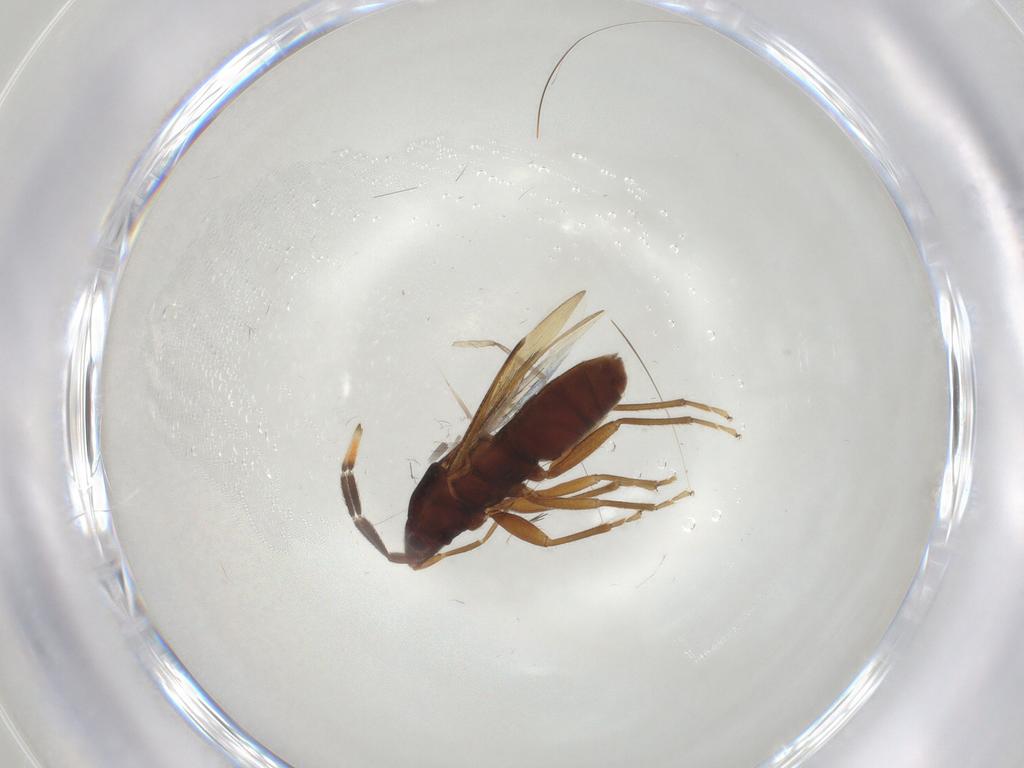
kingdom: Animalia
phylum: Arthropoda
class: Insecta
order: Hemiptera
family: Rhyparochromidae
